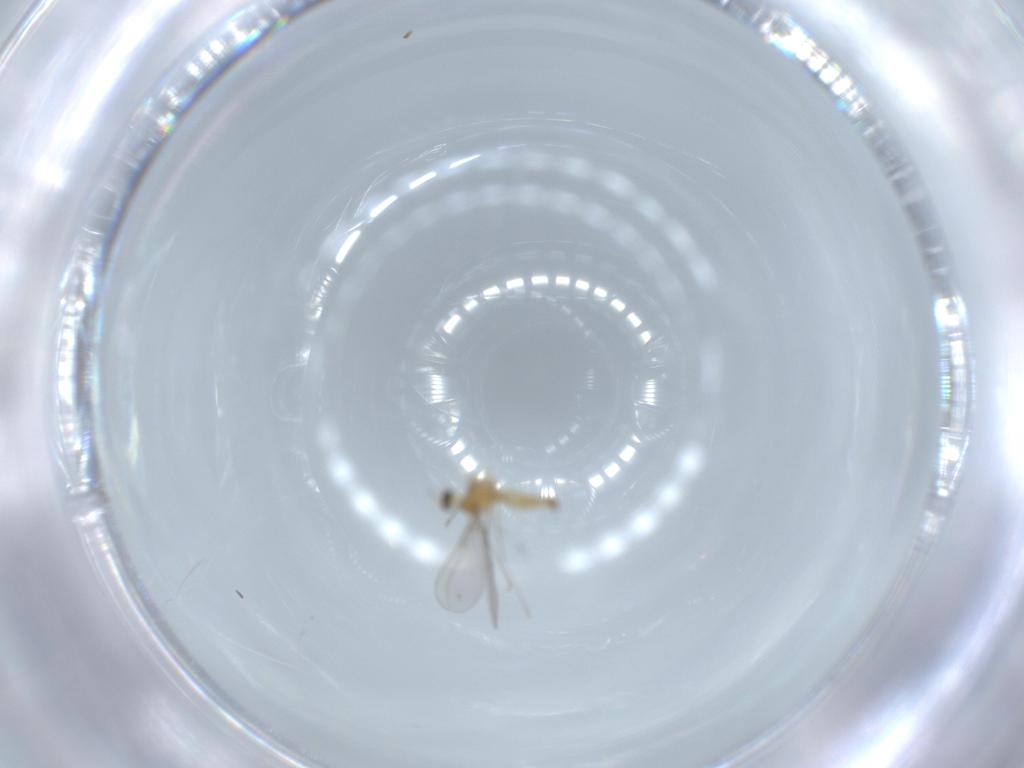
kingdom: Animalia
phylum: Arthropoda
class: Insecta
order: Diptera
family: Cecidomyiidae
